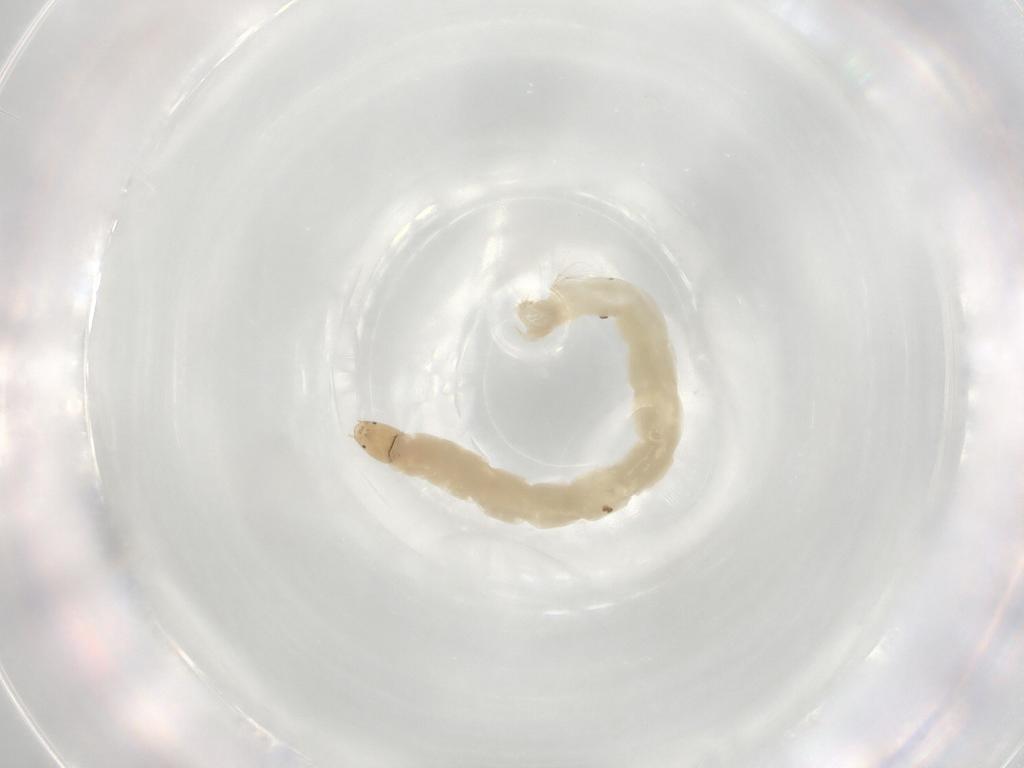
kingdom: Animalia
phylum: Arthropoda
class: Insecta
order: Diptera
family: Chironomidae
